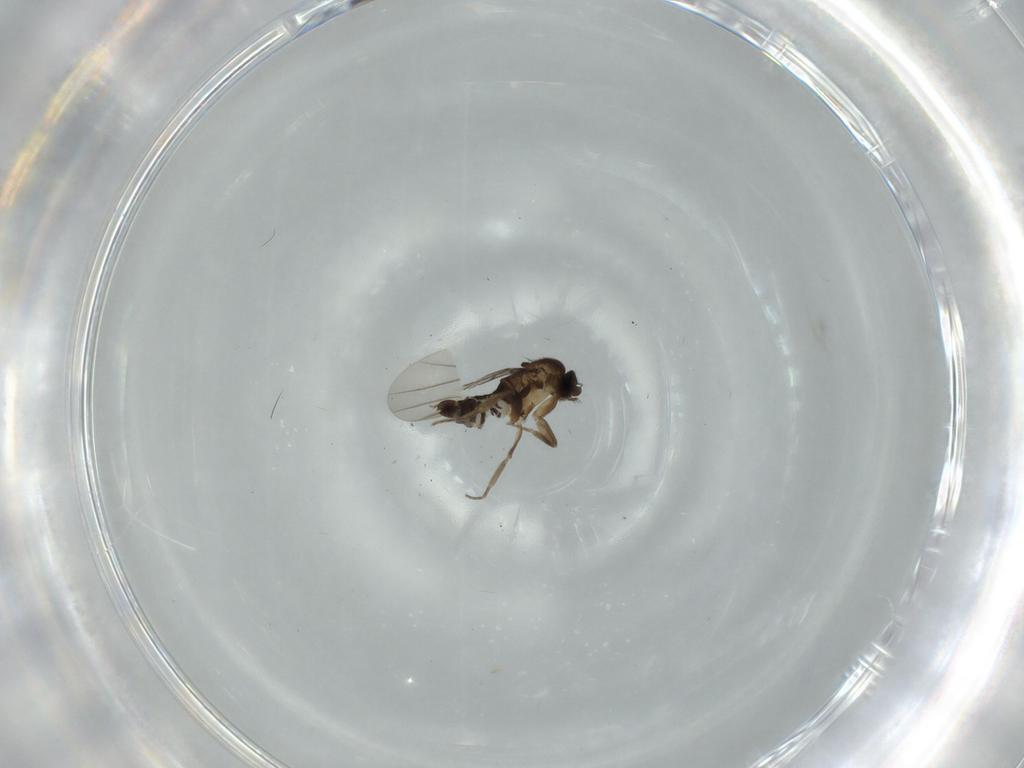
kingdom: Animalia
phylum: Arthropoda
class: Insecta
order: Diptera
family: Phoridae
